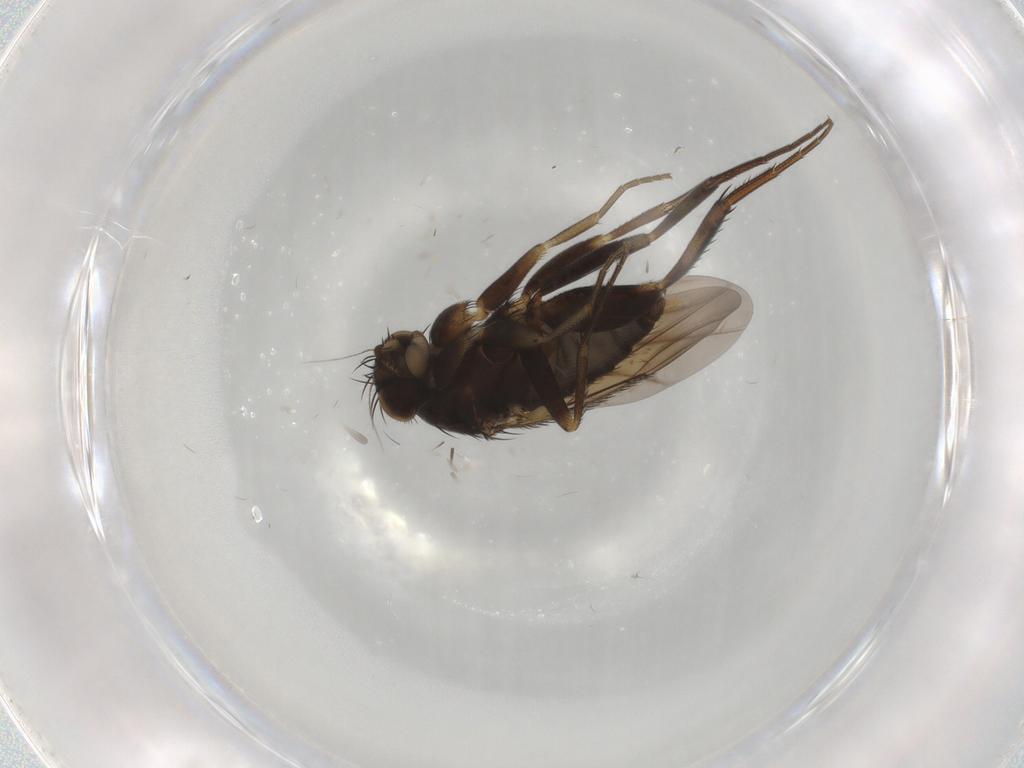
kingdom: Animalia
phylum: Arthropoda
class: Insecta
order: Diptera
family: Phoridae
